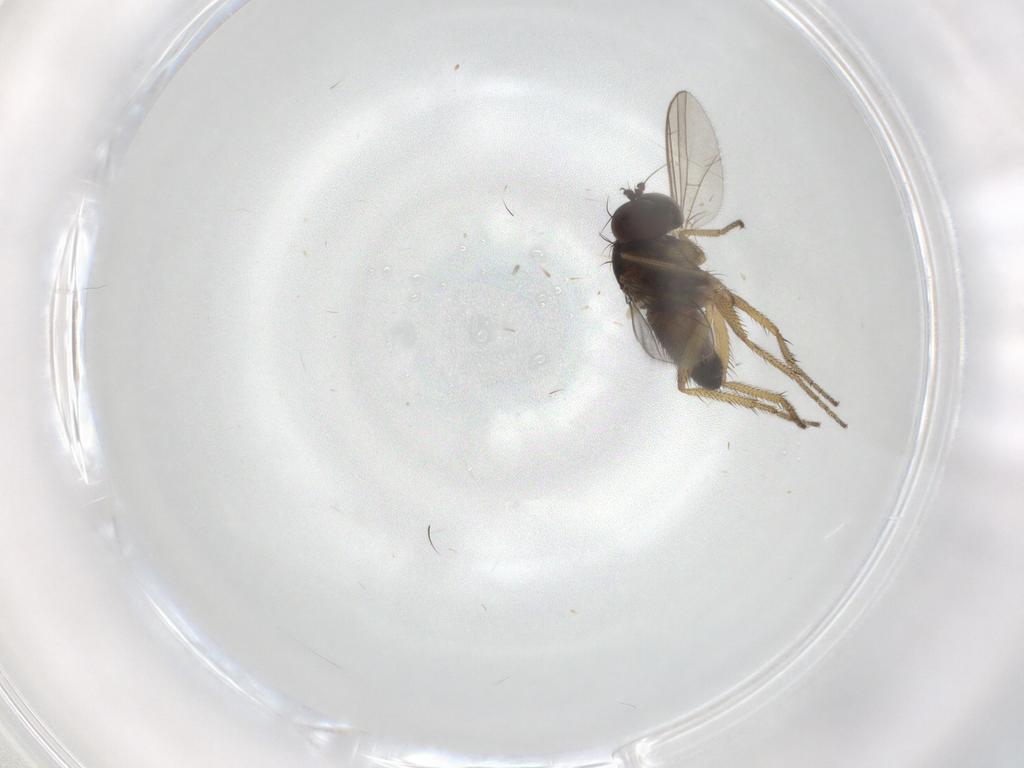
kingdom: Animalia
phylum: Arthropoda
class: Insecta
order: Diptera
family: Dolichopodidae
